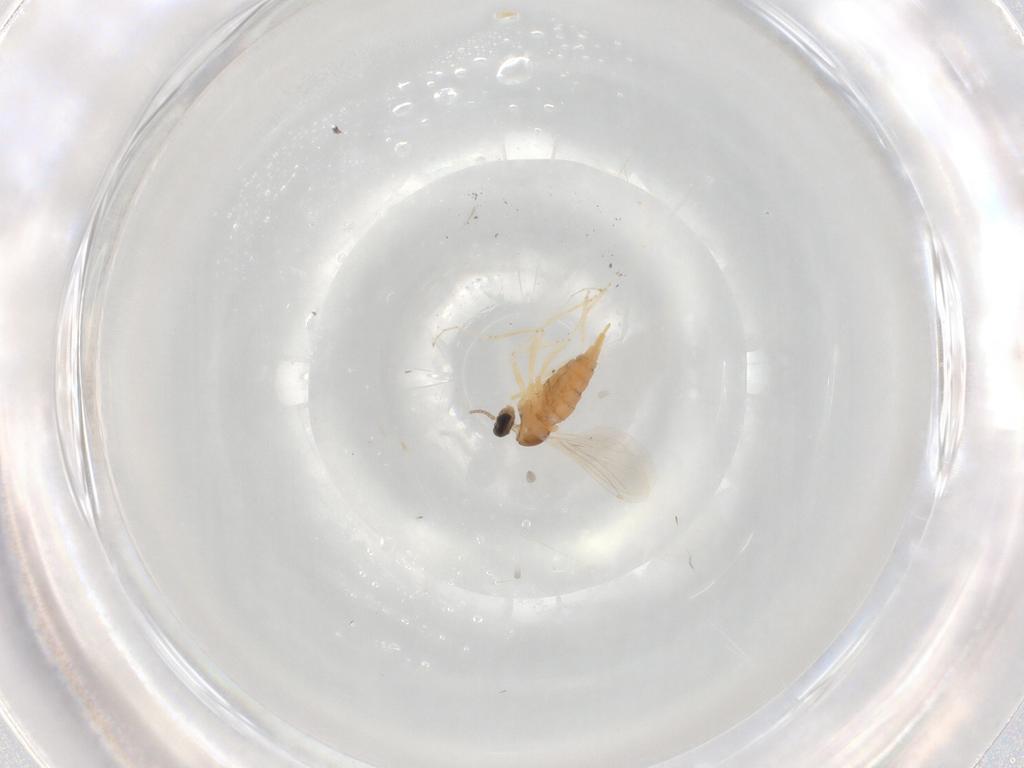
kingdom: Animalia
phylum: Arthropoda
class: Insecta
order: Diptera
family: Cecidomyiidae
